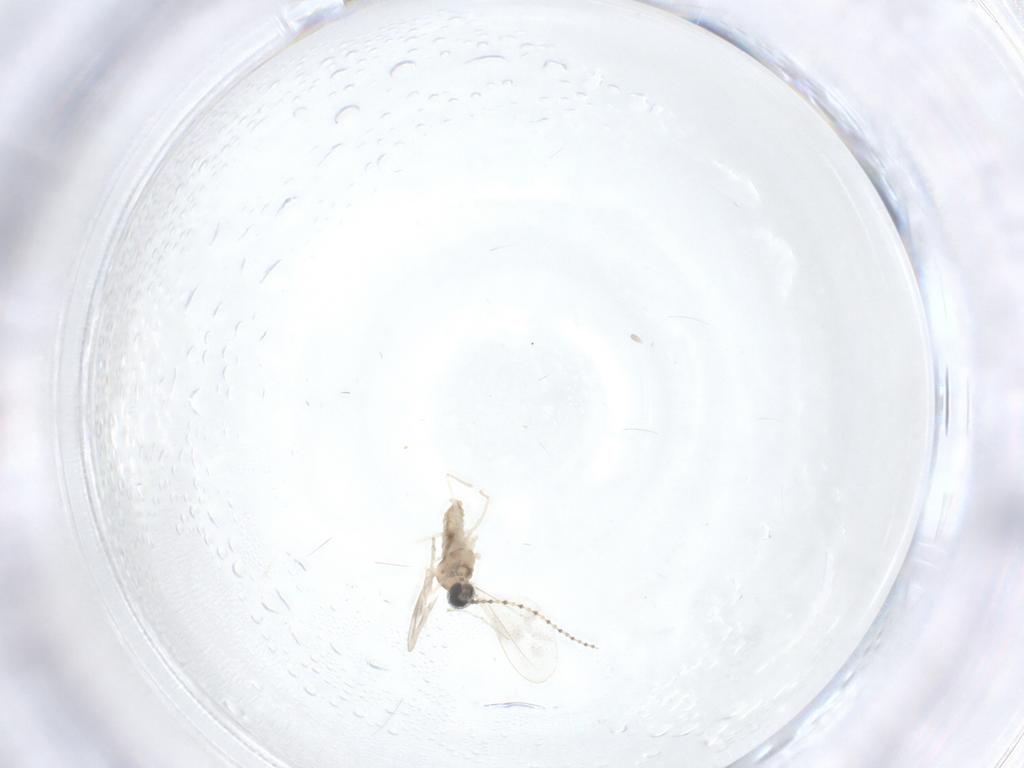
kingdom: Animalia
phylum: Arthropoda
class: Insecta
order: Diptera
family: Cecidomyiidae
